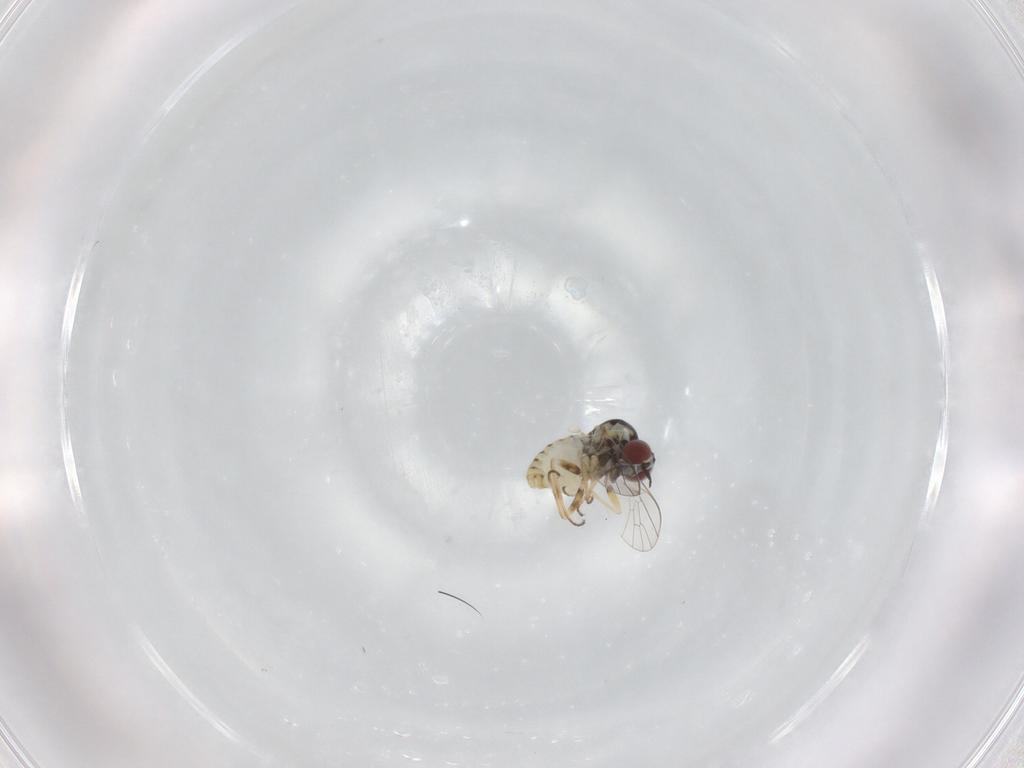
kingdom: Animalia
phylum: Arthropoda
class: Insecta
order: Diptera
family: Bombyliidae
